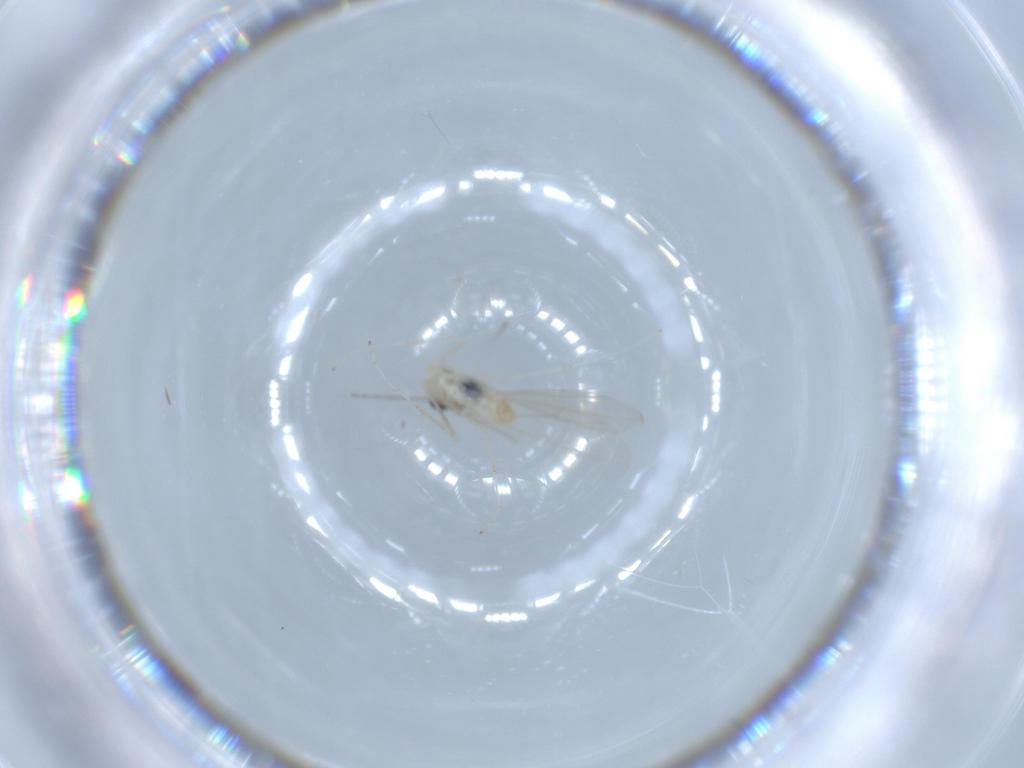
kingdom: Animalia
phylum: Arthropoda
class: Insecta
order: Diptera
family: Cecidomyiidae
